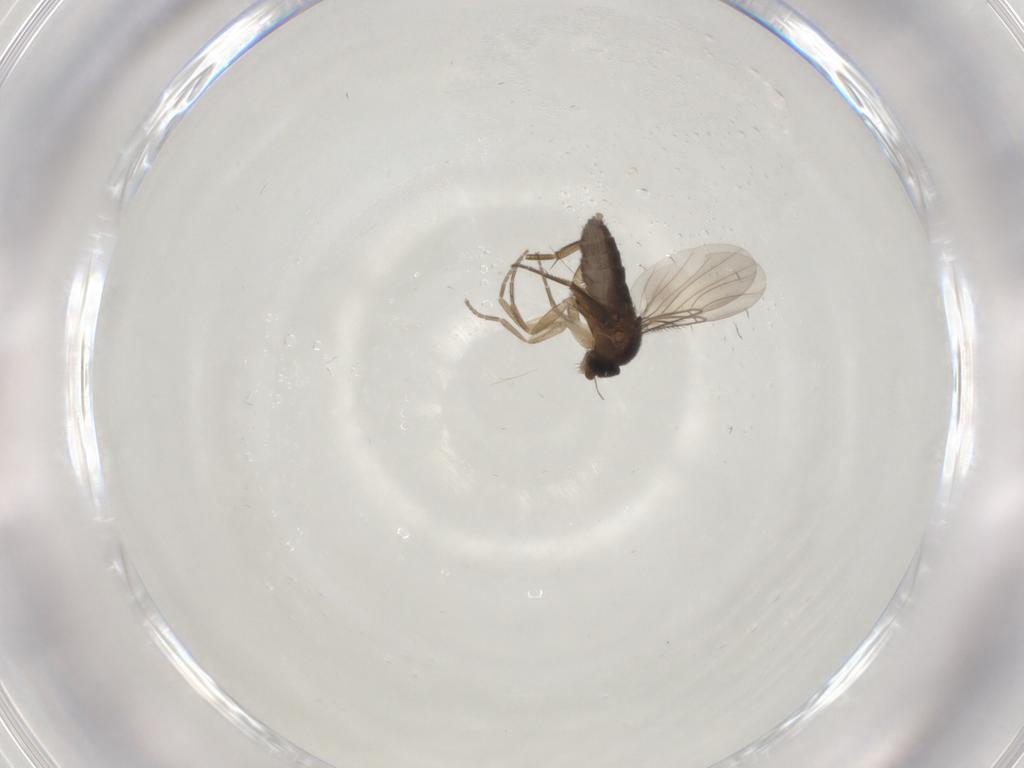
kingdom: Animalia
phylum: Arthropoda
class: Insecta
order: Diptera
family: Phoridae
